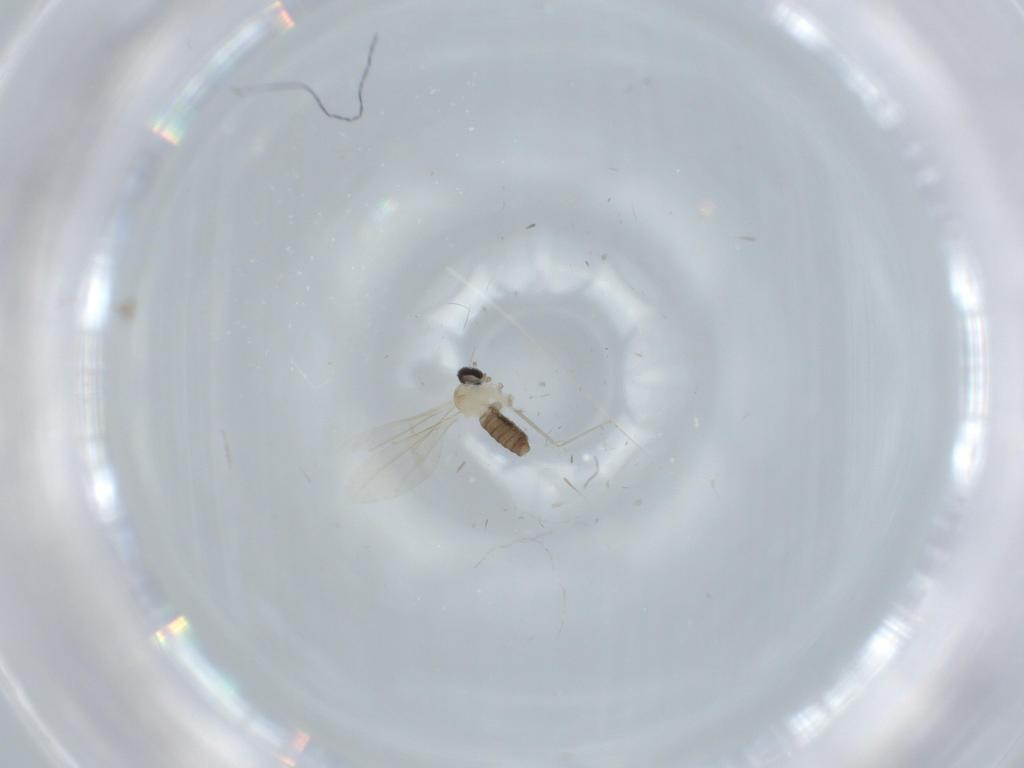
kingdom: Animalia
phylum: Arthropoda
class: Insecta
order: Diptera
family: Cecidomyiidae
